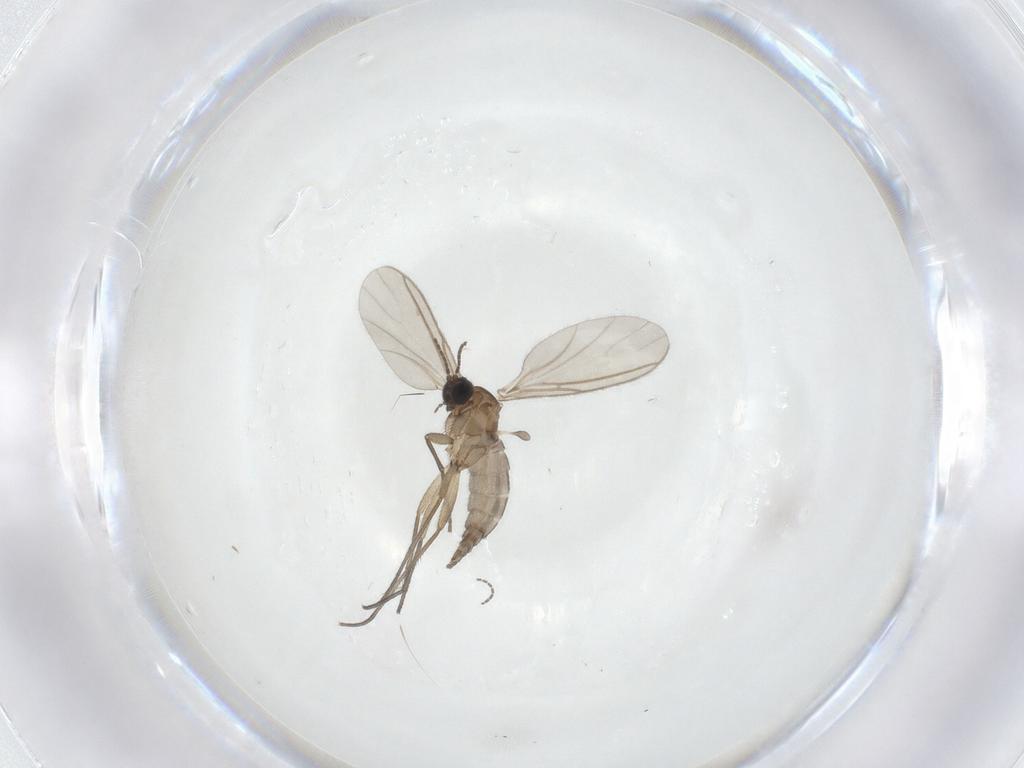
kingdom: Animalia
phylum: Arthropoda
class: Insecta
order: Diptera
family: Sciaridae
